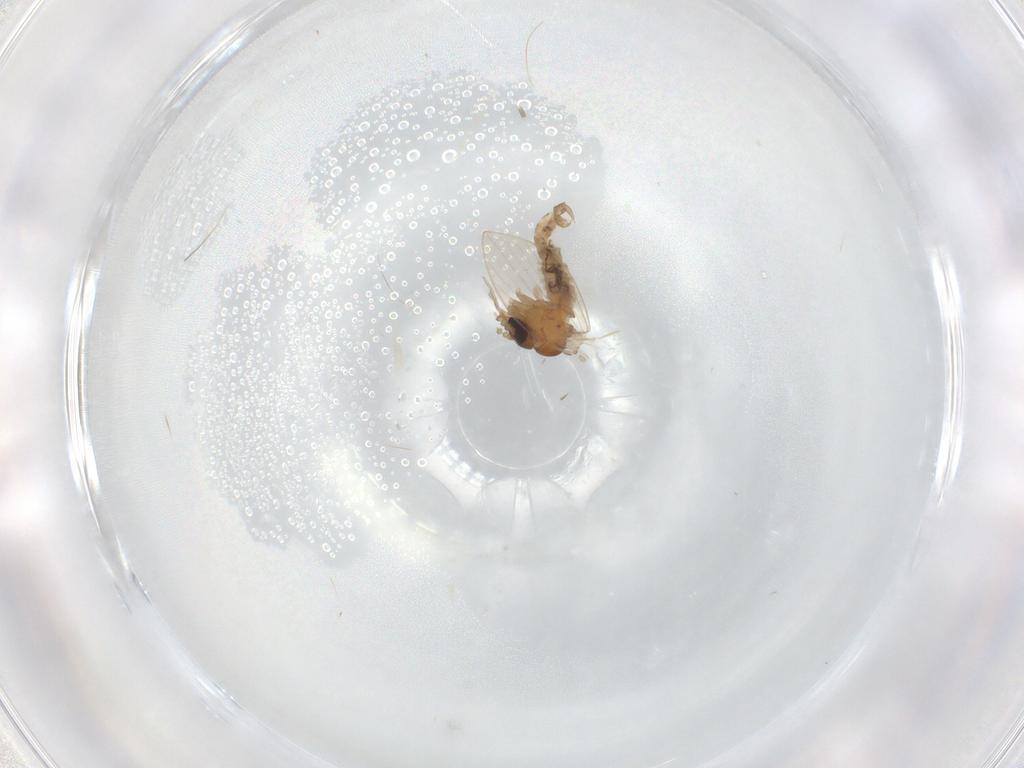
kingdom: Animalia
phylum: Arthropoda
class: Insecta
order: Diptera
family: Psychodidae
